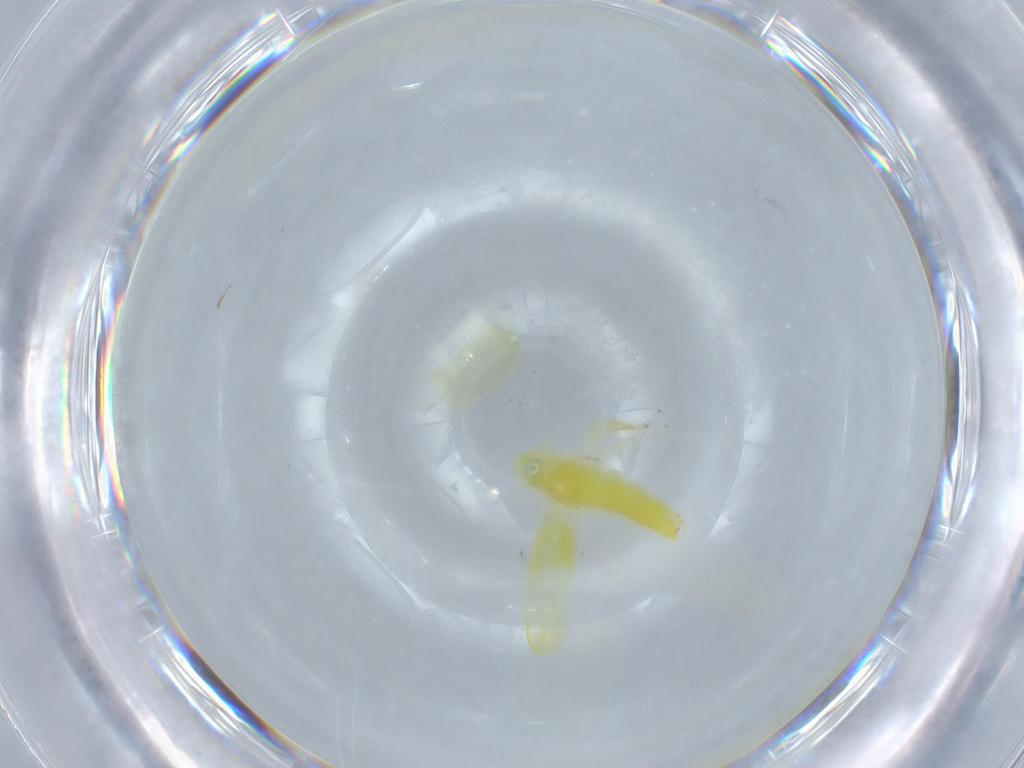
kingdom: Animalia
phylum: Arthropoda
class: Insecta
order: Hemiptera
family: Cicadellidae
